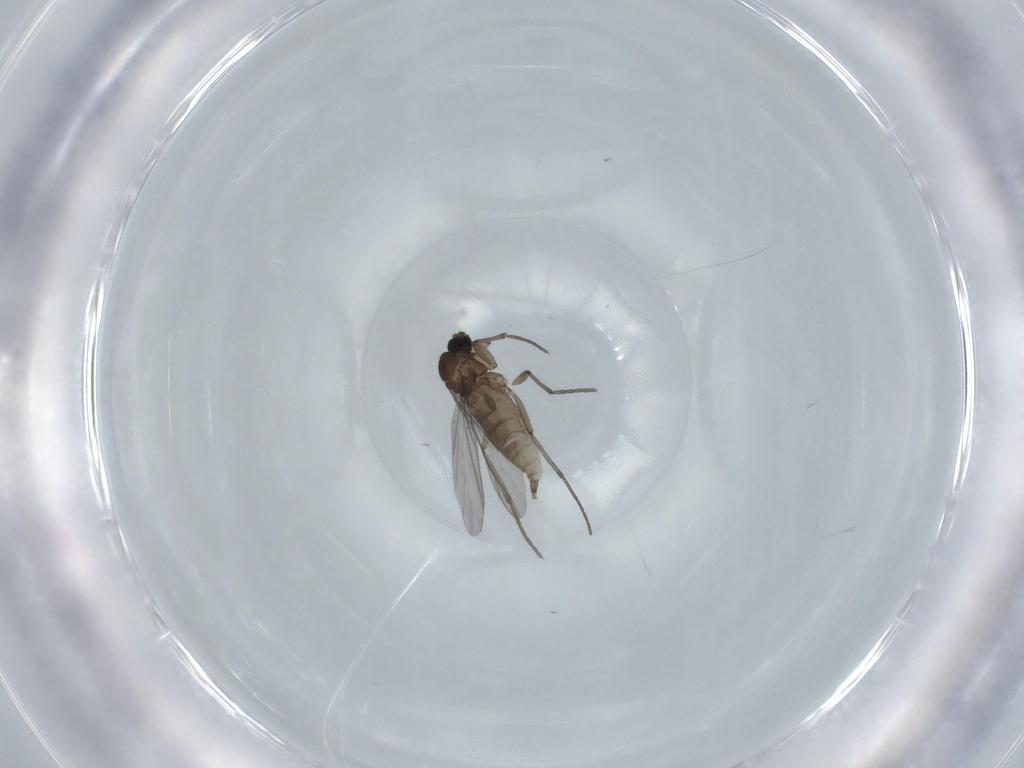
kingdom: Animalia
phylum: Arthropoda
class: Insecta
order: Diptera
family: Sciaridae
